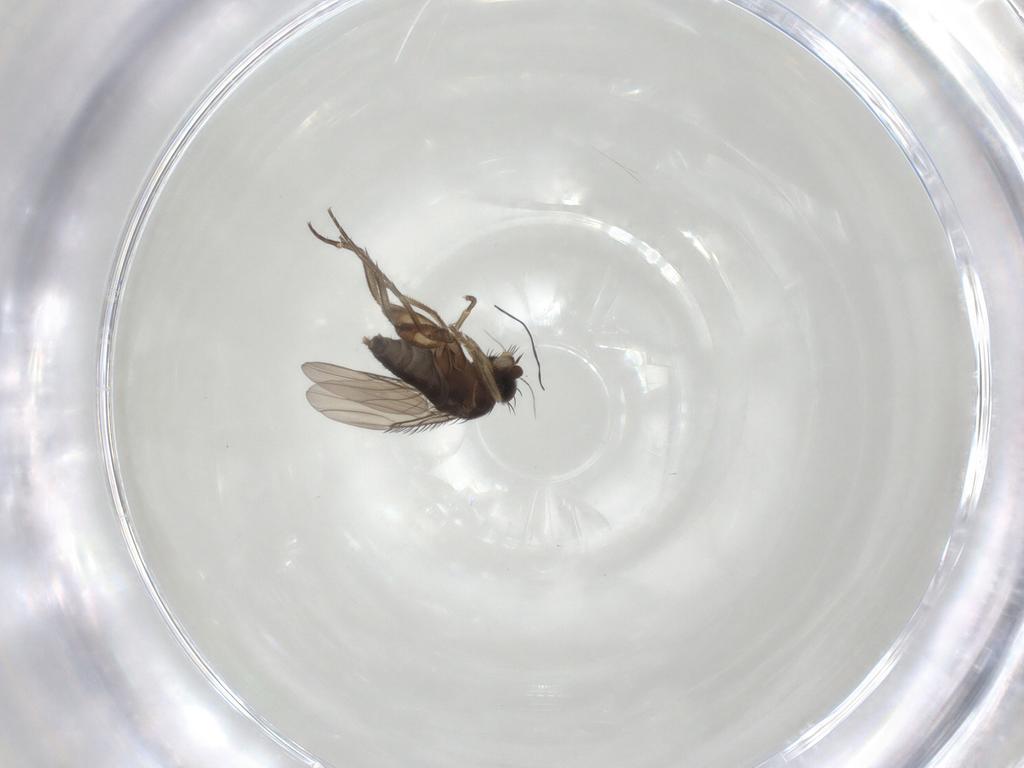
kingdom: Animalia
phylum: Arthropoda
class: Insecta
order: Diptera
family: Phoridae
